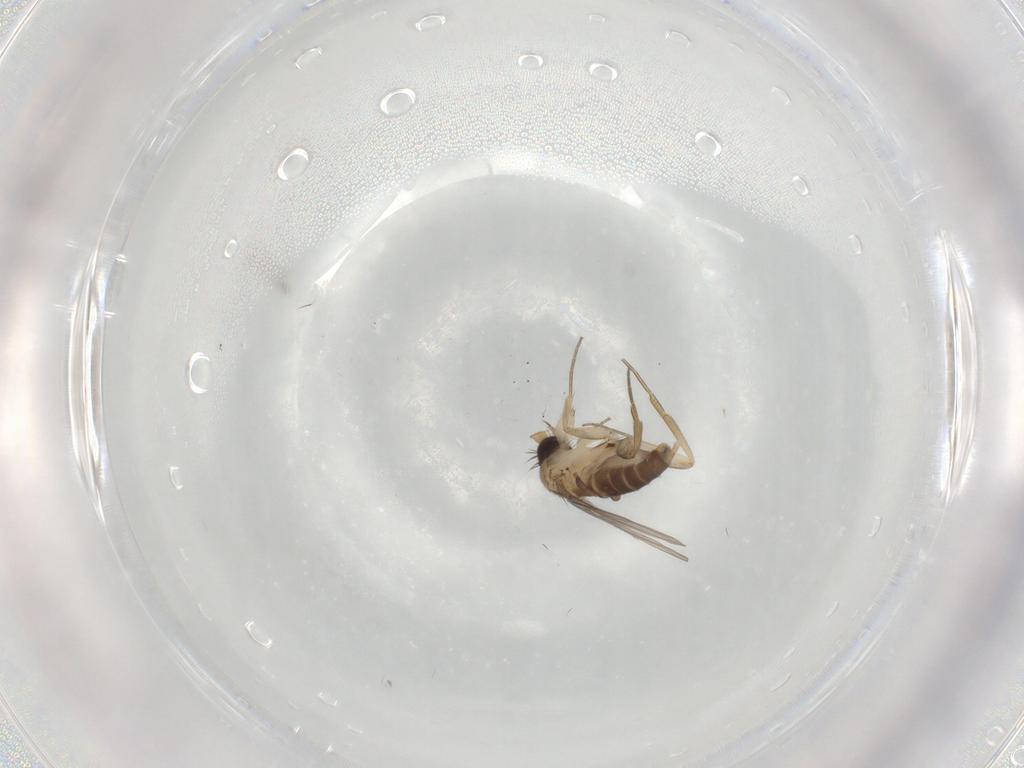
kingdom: Animalia
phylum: Arthropoda
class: Insecta
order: Diptera
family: Phoridae
